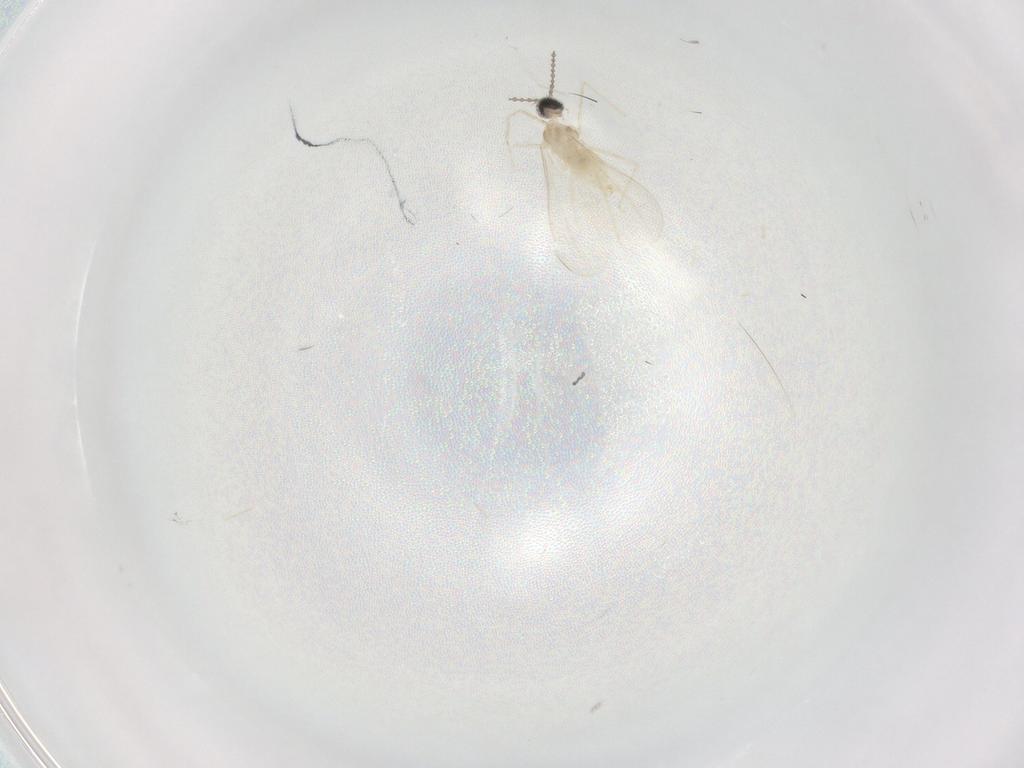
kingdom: Animalia
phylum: Arthropoda
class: Insecta
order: Diptera
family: Cecidomyiidae
